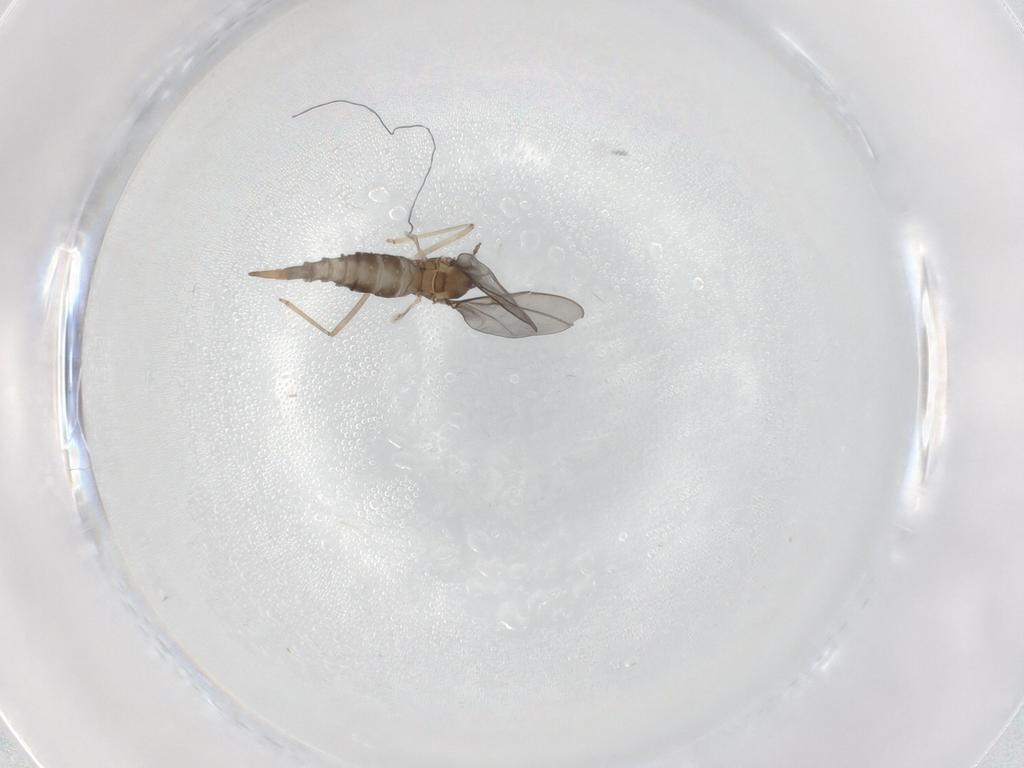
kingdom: Animalia
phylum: Arthropoda
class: Insecta
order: Diptera
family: Cecidomyiidae
